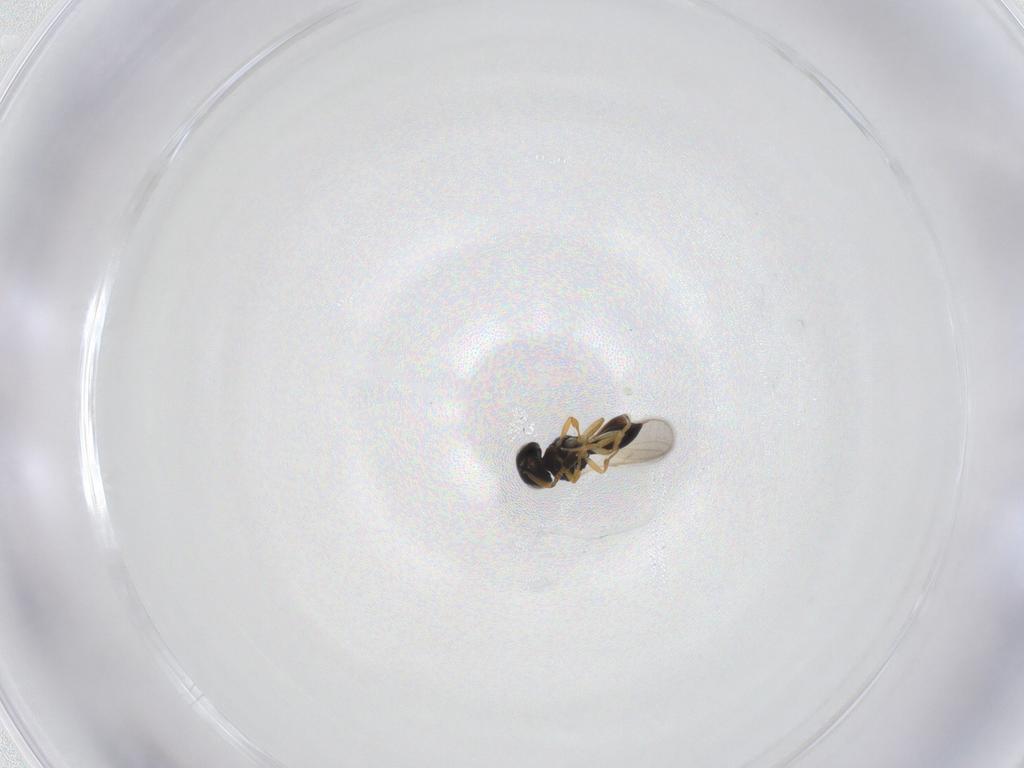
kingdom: Animalia
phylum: Arthropoda
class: Insecta
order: Hymenoptera
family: Scelionidae
